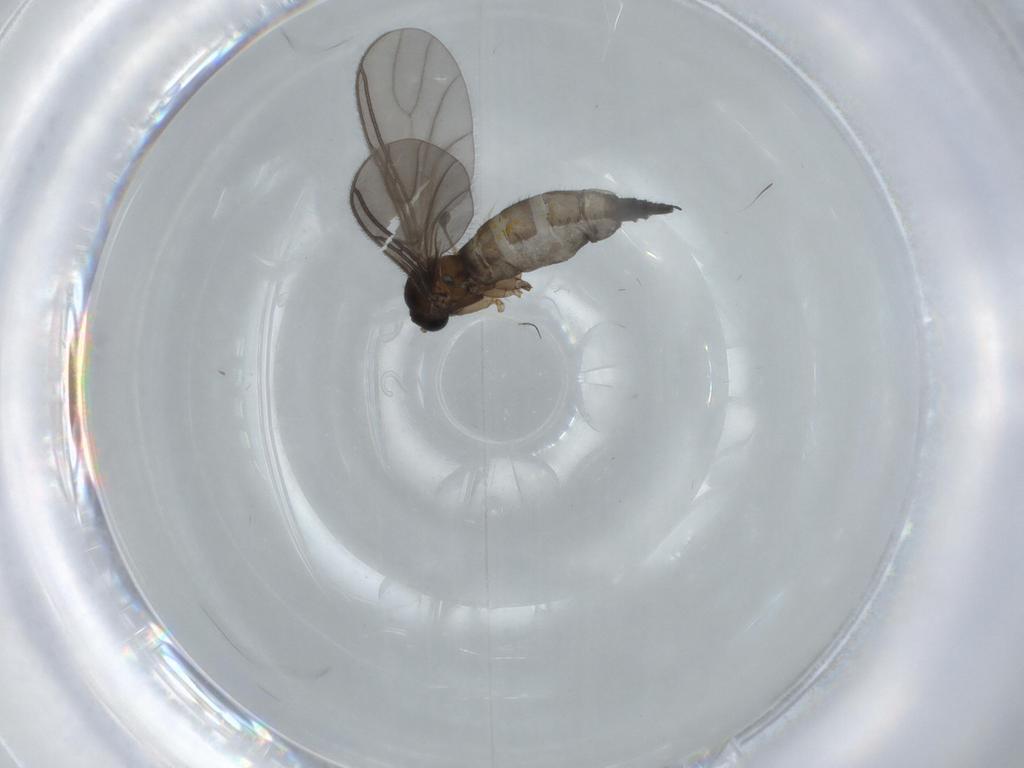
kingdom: Animalia
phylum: Arthropoda
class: Insecta
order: Diptera
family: Sciaridae
